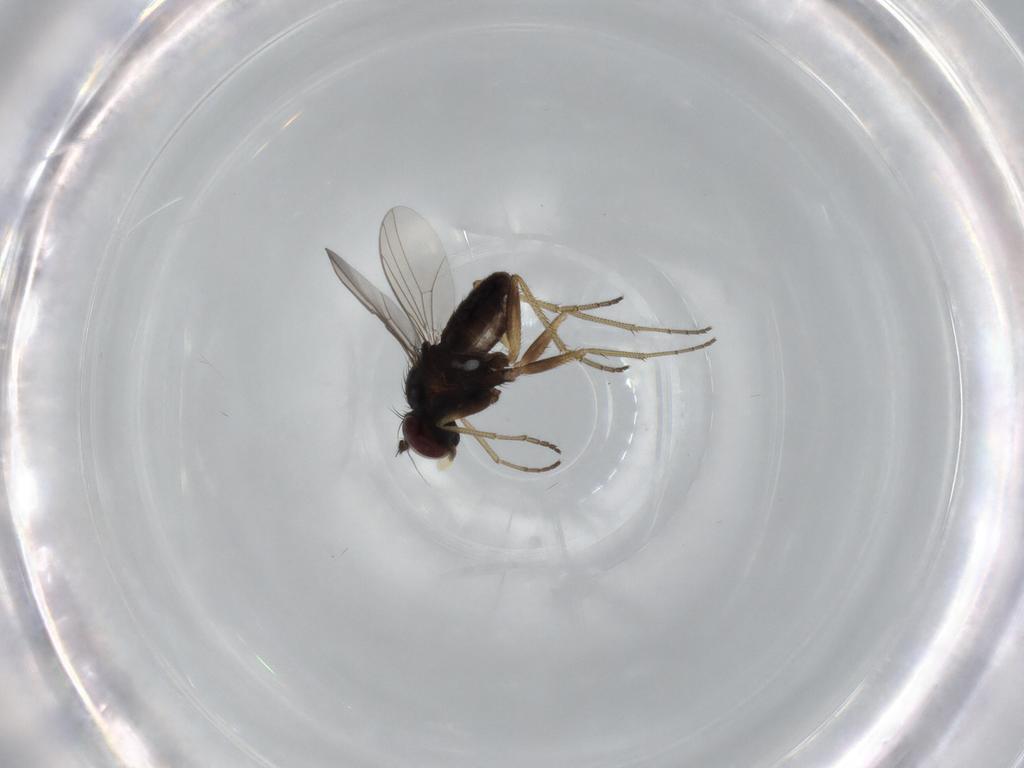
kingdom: Animalia
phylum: Arthropoda
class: Insecta
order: Diptera
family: Dolichopodidae
